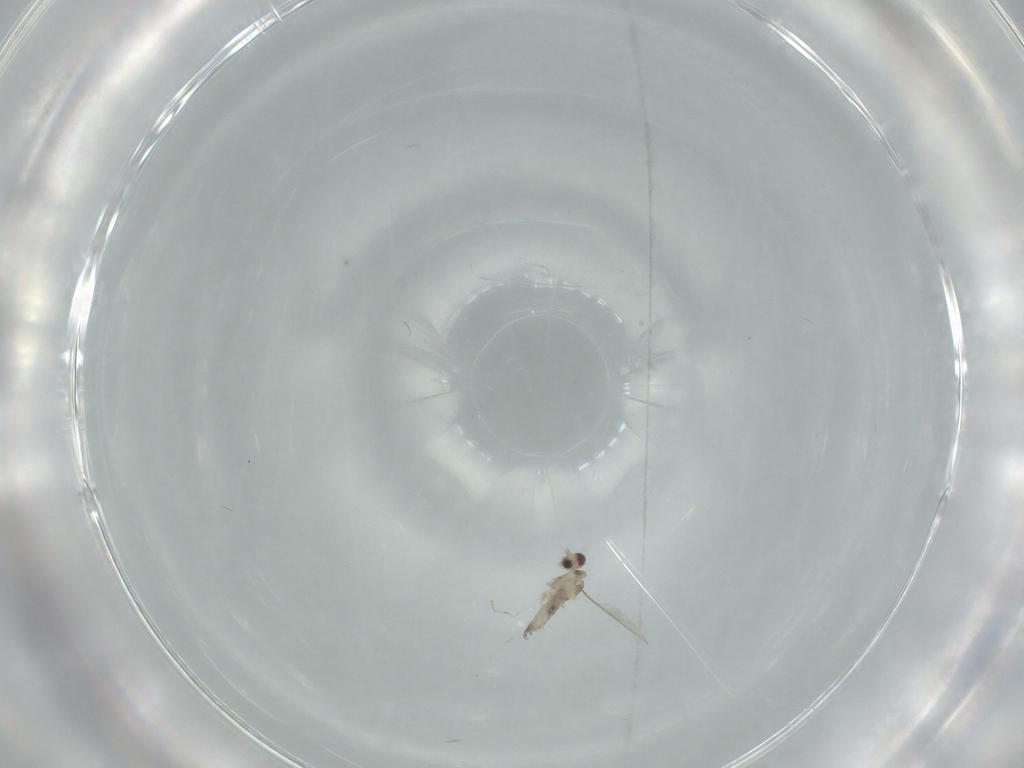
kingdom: Animalia
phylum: Arthropoda
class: Insecta
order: Diptera
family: Cecidomyiidae
